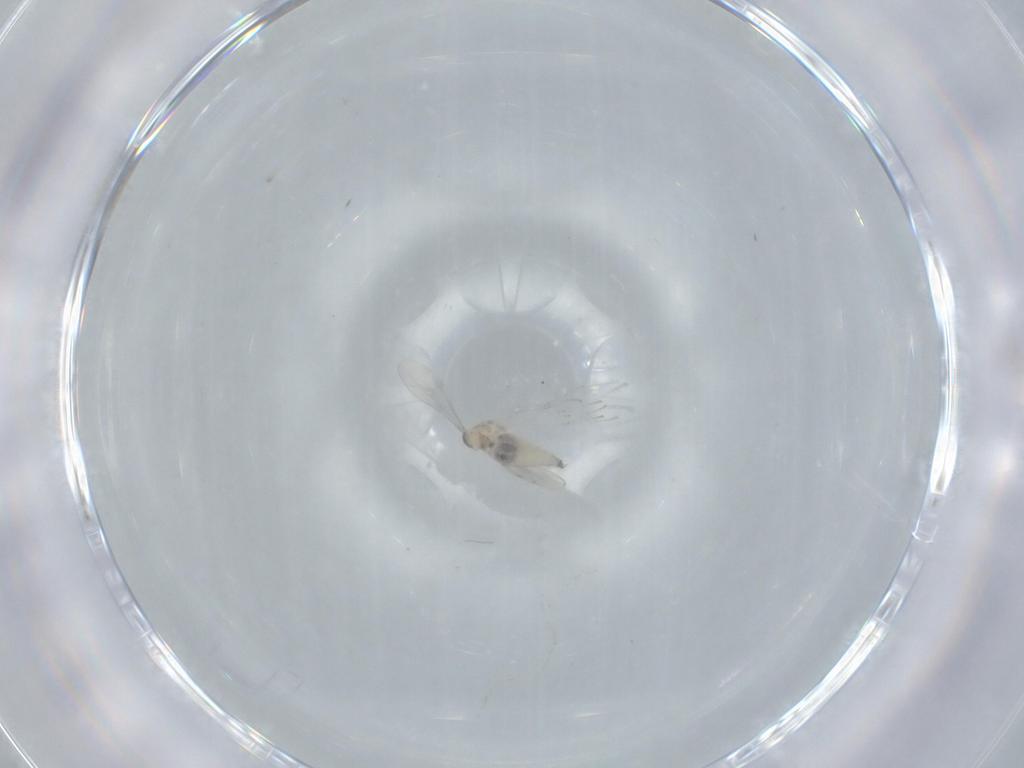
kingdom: Animalia
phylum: Arthropoda
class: Insecta
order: Diptera
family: Cecidomyiidae
